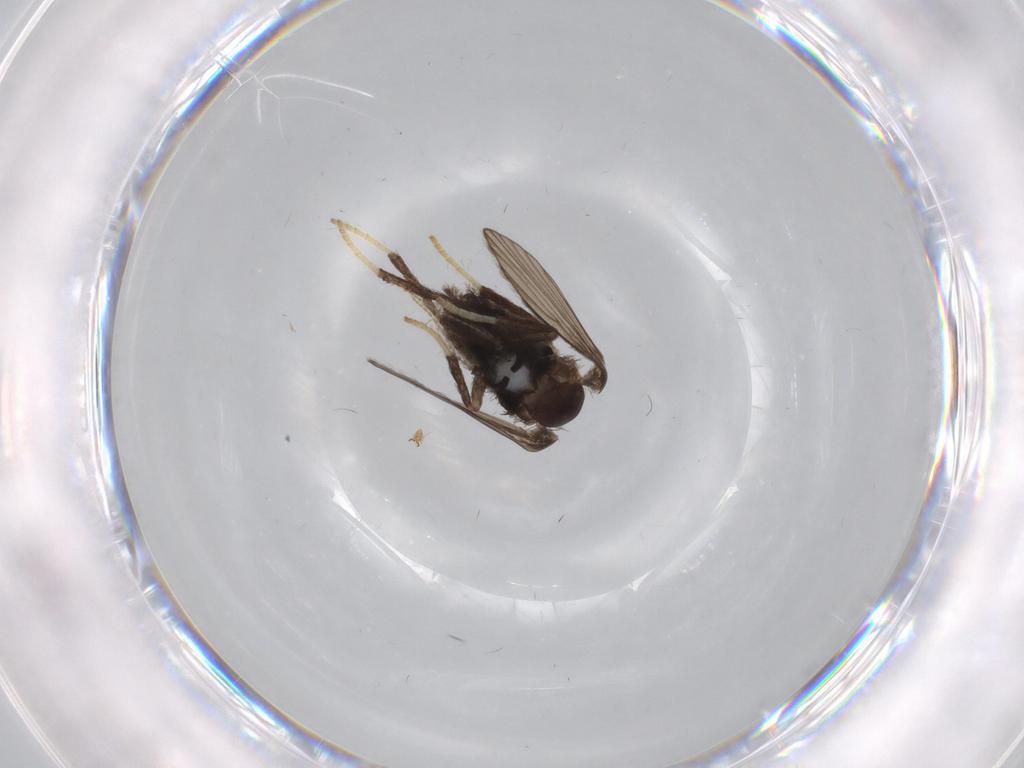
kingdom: Animalia
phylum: Arthropoda
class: Insecta
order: Diptera
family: Psychodidae
